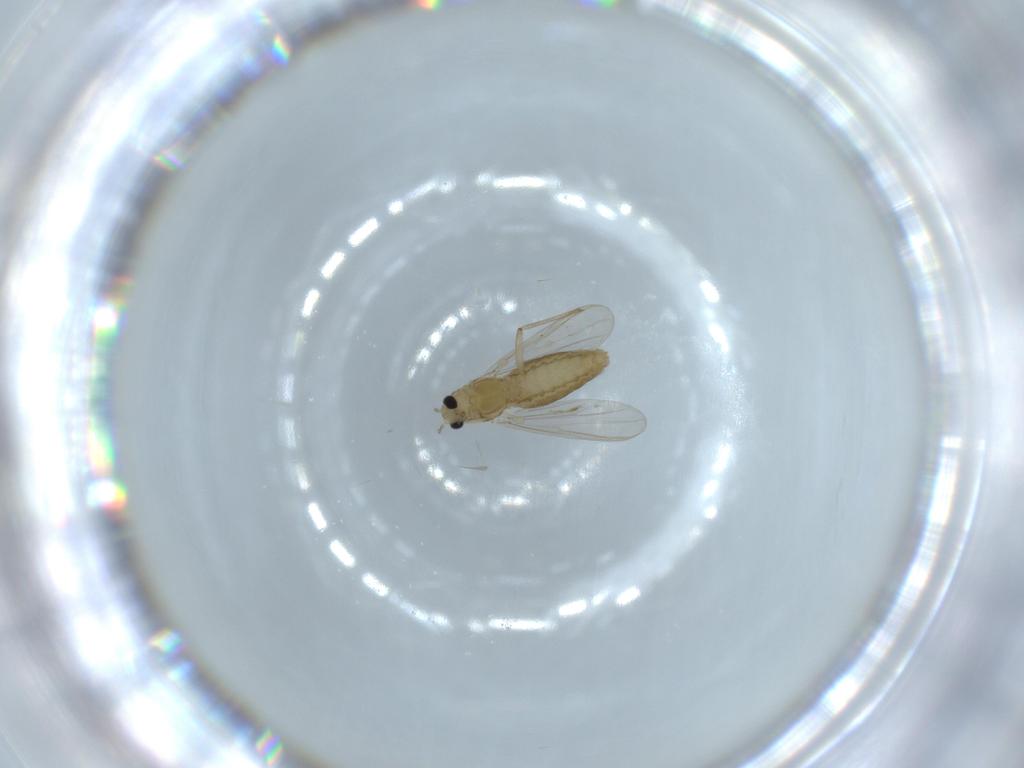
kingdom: Animalia
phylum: Arthropoda
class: Insecta
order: Diptera
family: Chironomidae
